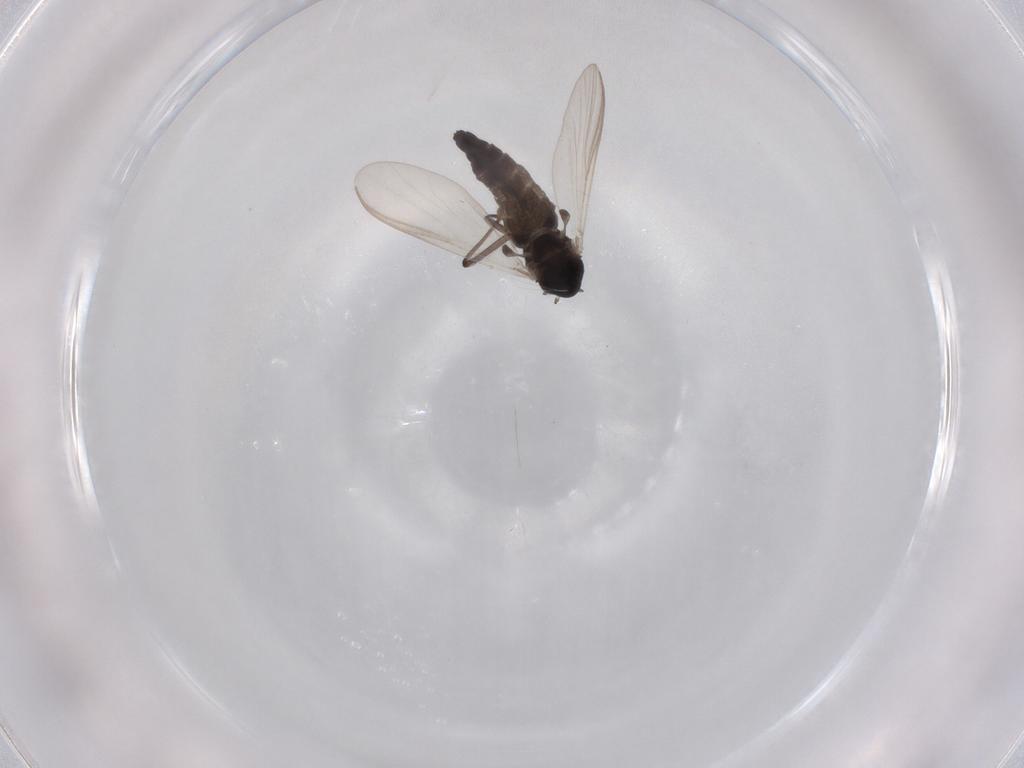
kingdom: Animalia
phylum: Arthropoda
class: Insecta
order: Diptera
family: Chironomidae
